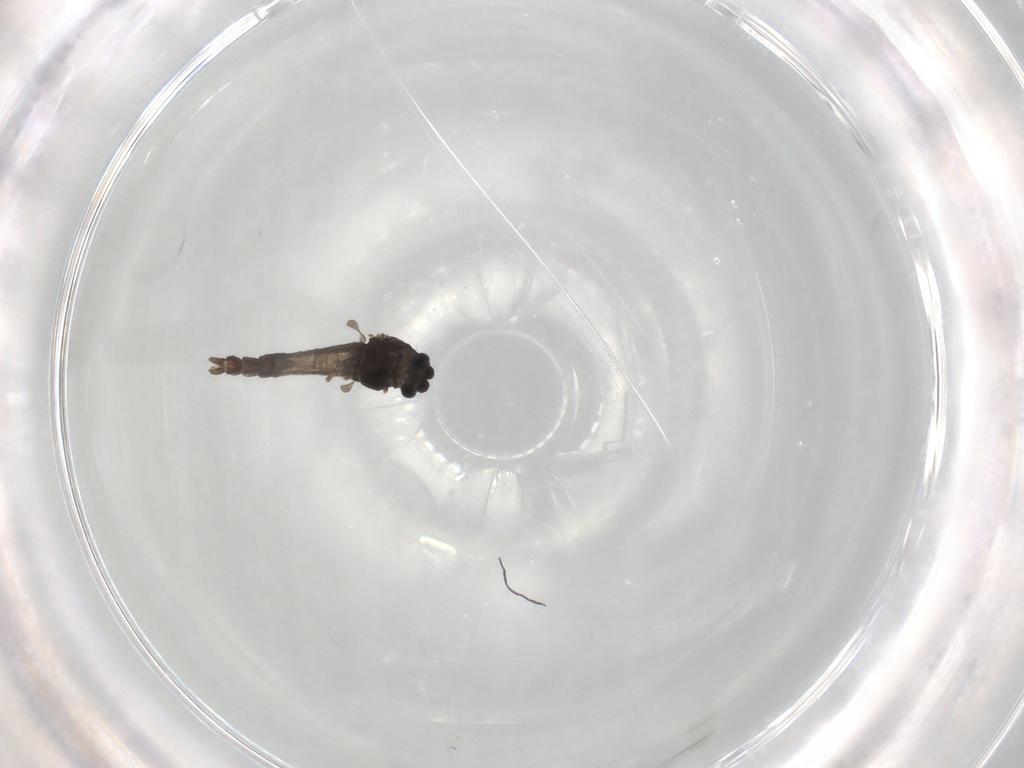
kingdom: Animalia
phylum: Arthropoda
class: Insecta
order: Diptera
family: Chironomidae
